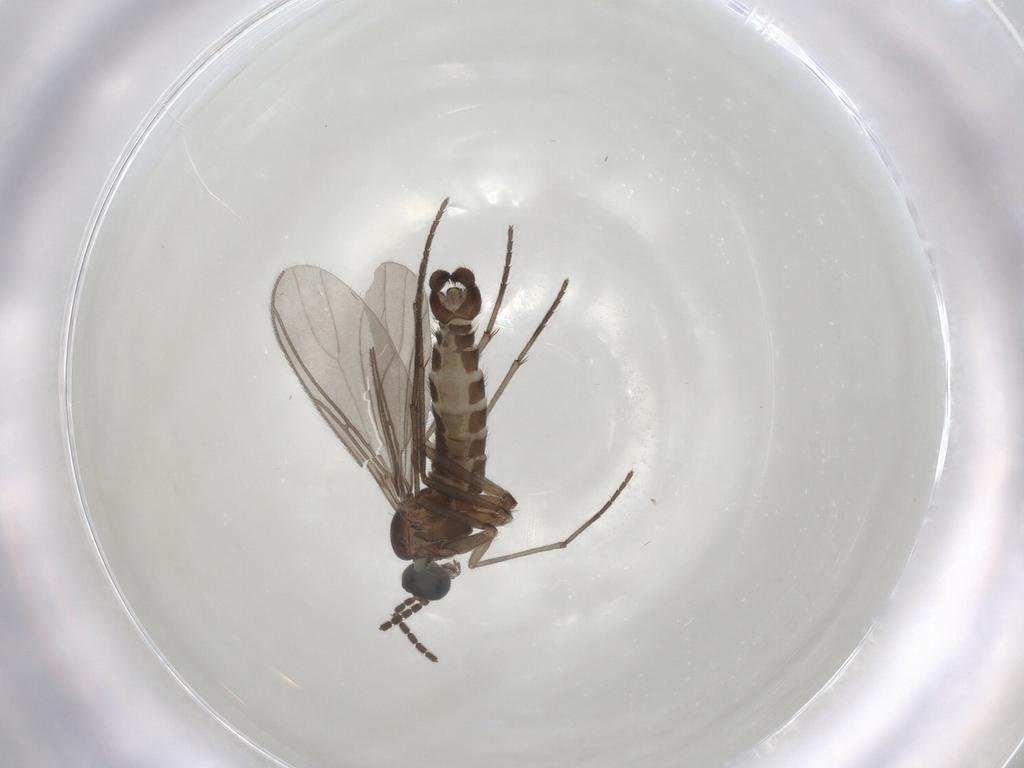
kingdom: Animalia
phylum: Arthropoda
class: Insecta
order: Diptera
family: Sciaridae
